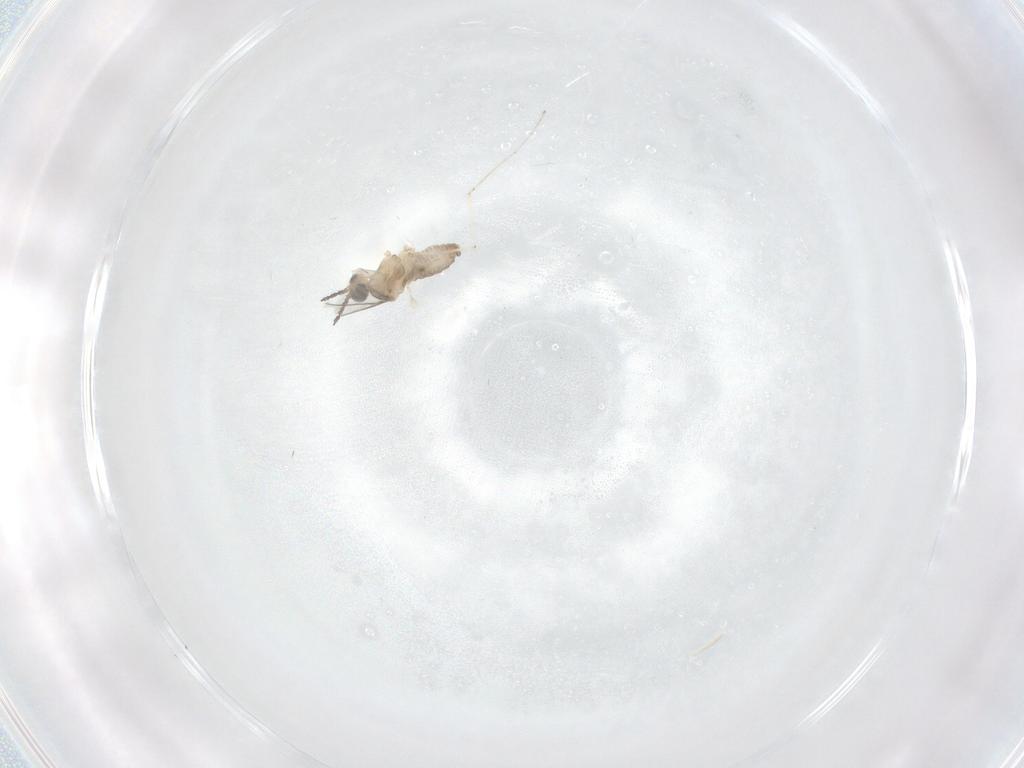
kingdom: Animalia
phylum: Arthropoda
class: Insecta
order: Diptera
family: Cecidomyiidae
